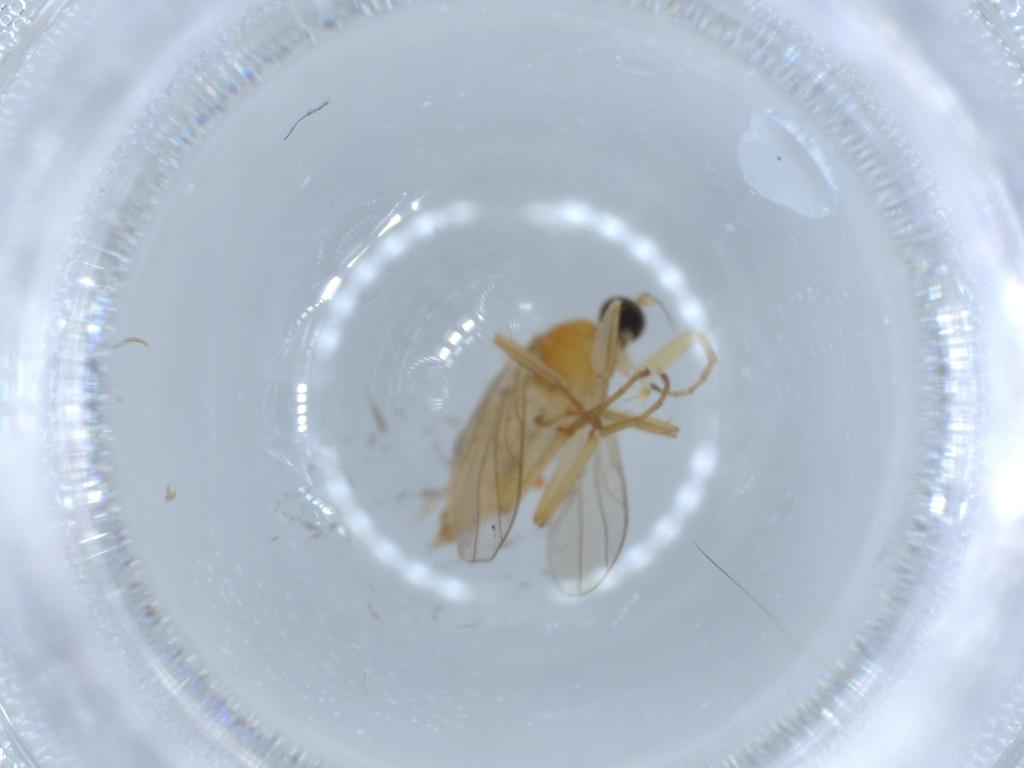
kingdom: Animalia
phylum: Arthropoda
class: Insecta
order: Diptera
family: Hybotidae
